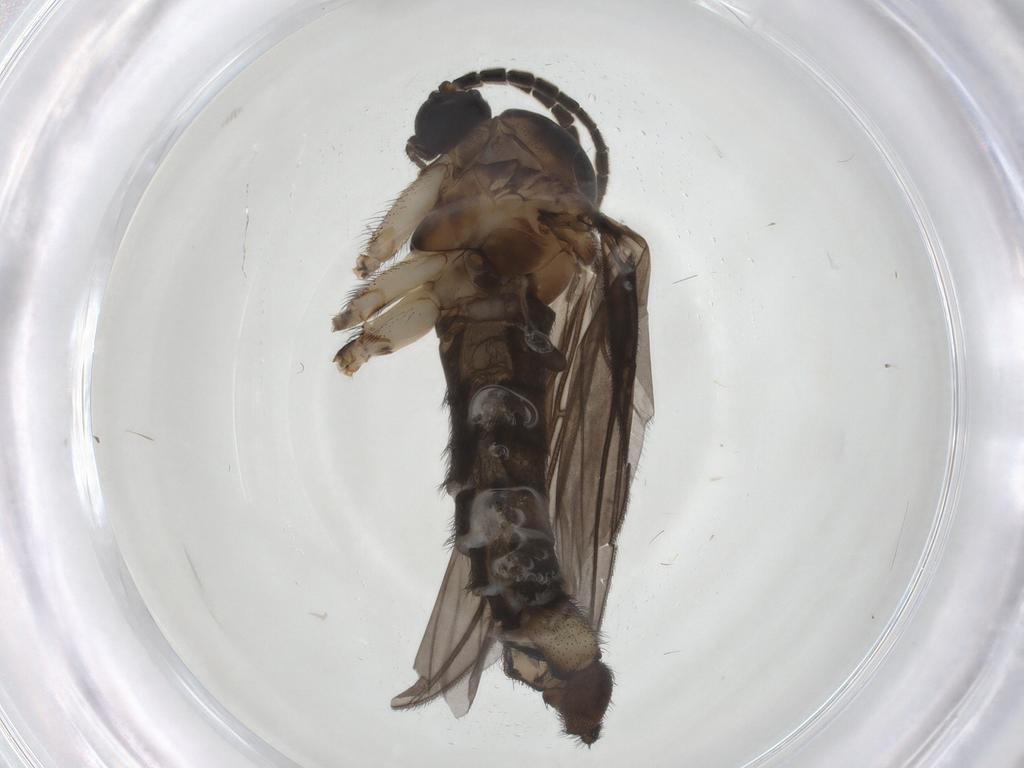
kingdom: Animalia
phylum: Arthropoda
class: Insecta
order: Diptera
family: Sciaridae
